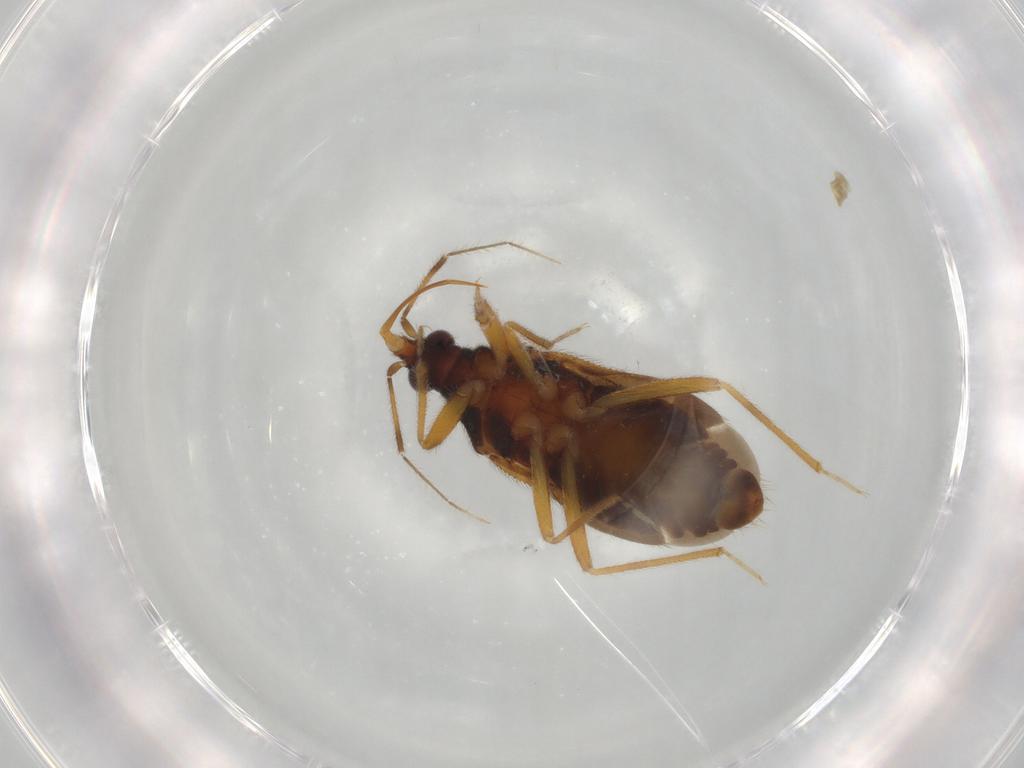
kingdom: Animalia
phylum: Arthropoda
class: Insecta
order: Hemiptera
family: Anthocoridae
